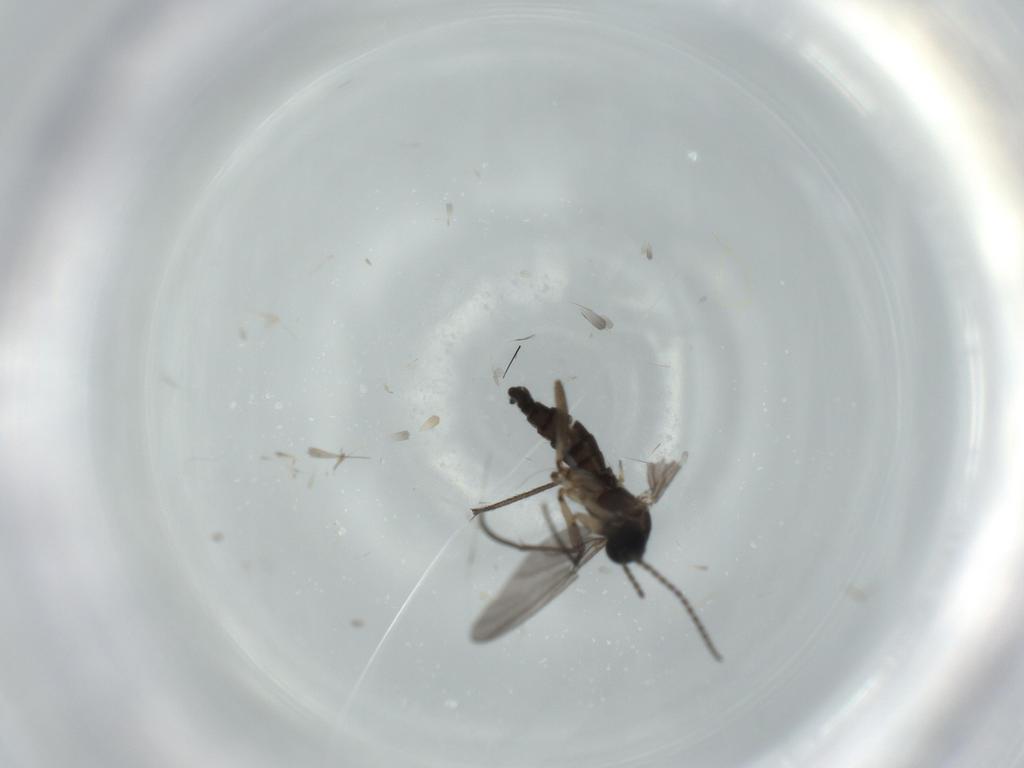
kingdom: Animalia
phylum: Arthropoda
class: Insecta
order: Diptera
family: Sciaridae
